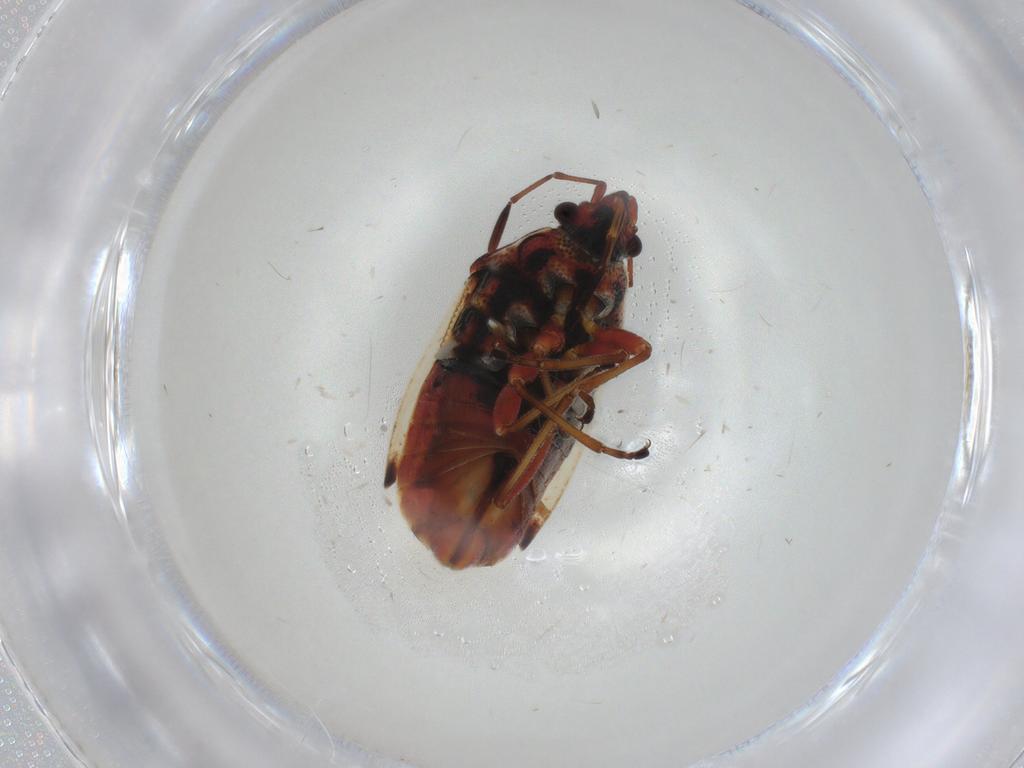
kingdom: Animalia
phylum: Arthropoda
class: Insecta
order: Hemiptera
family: Lygaeidae
